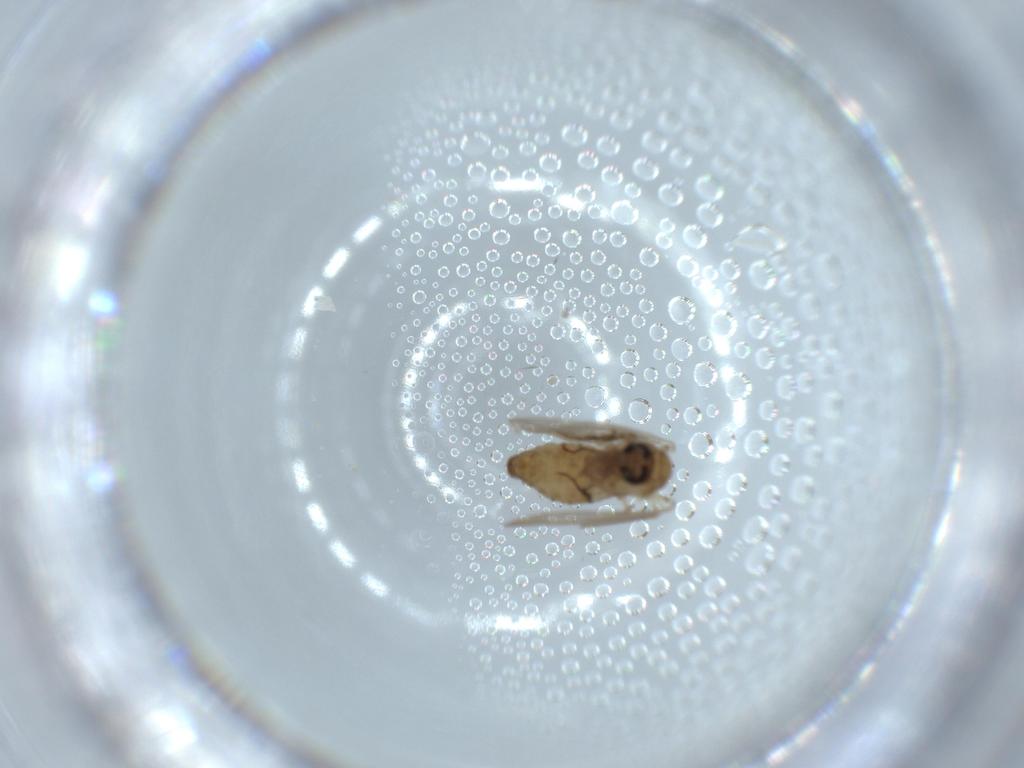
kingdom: Animalia
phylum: Arthropoda
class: Insecta
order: Diptera
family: Psychodidae
